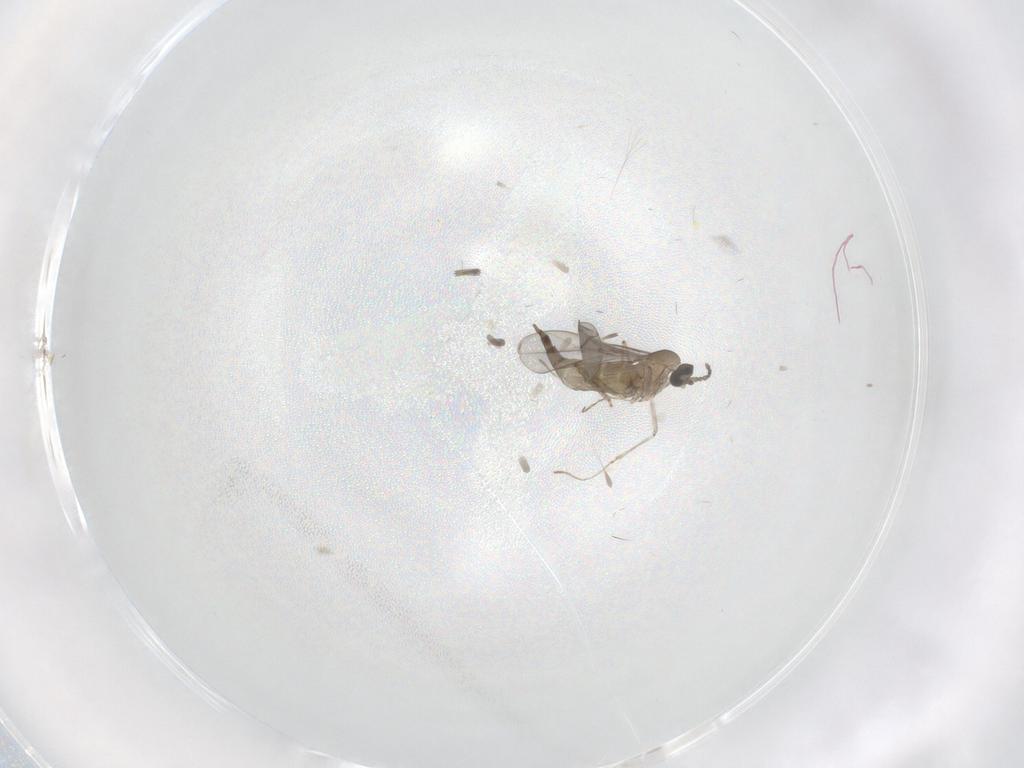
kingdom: Animalia
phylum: Arthropoda
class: Insecta
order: Diptera
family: Cecidomyiidae
